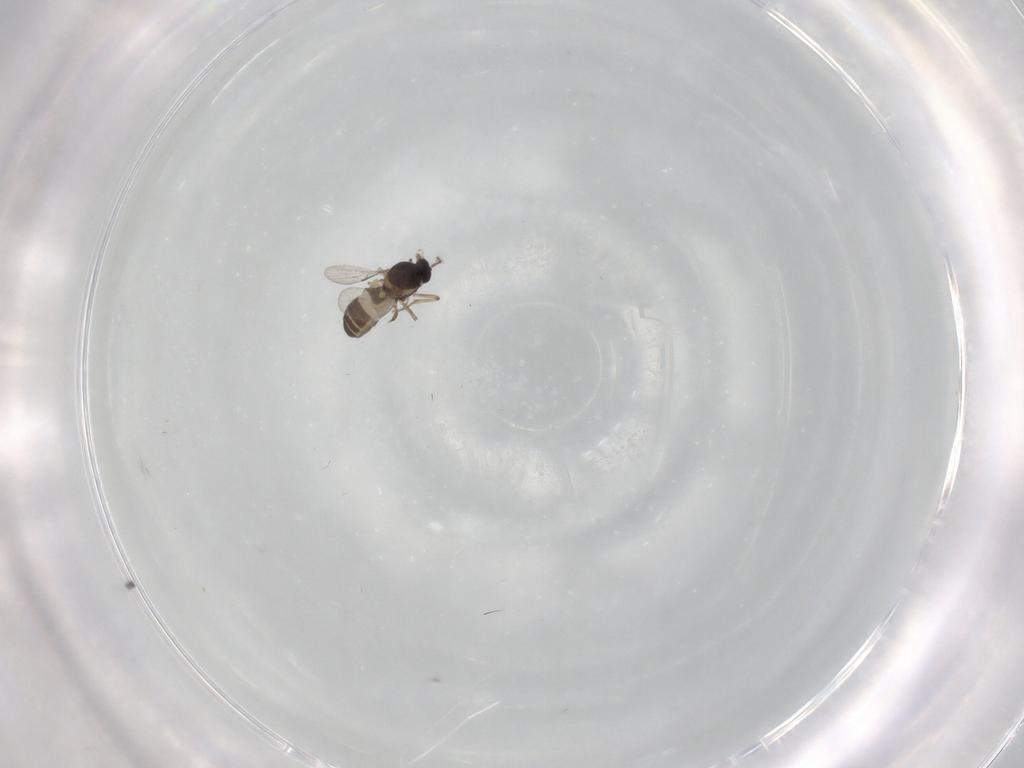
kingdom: Animalia
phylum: Arthropoda
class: Insecta
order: Diptera
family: Ceratopogonidae
